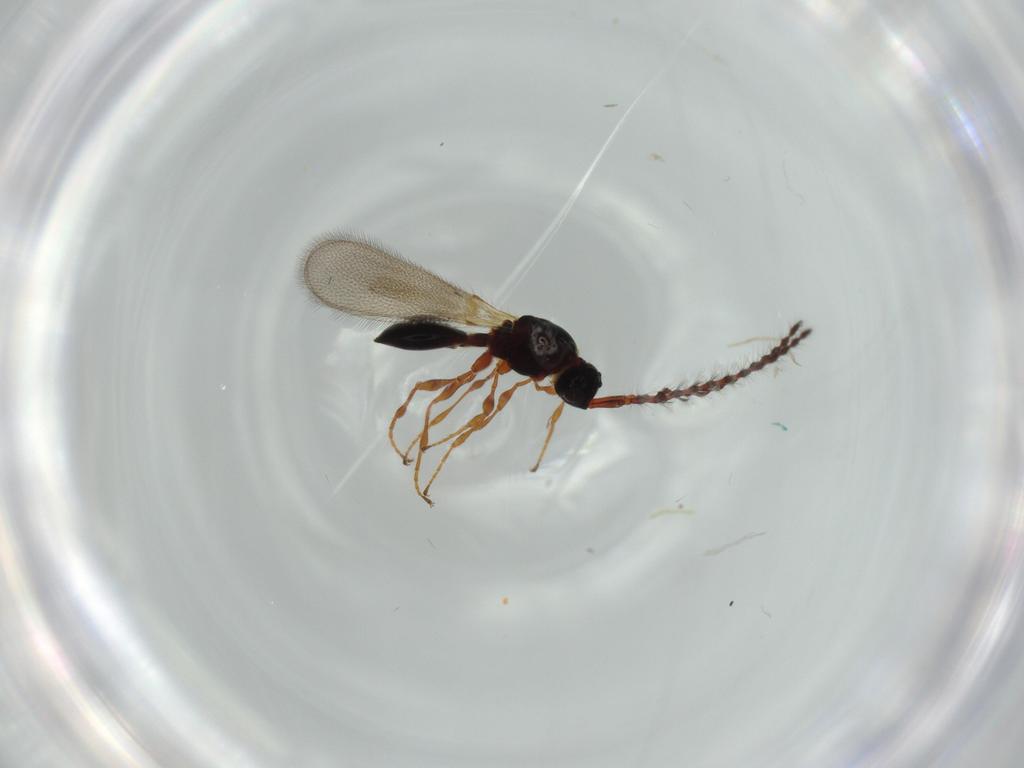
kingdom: Animalia
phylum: Arthropoda
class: Insecta
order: Hymenoptera
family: Diapriidae
